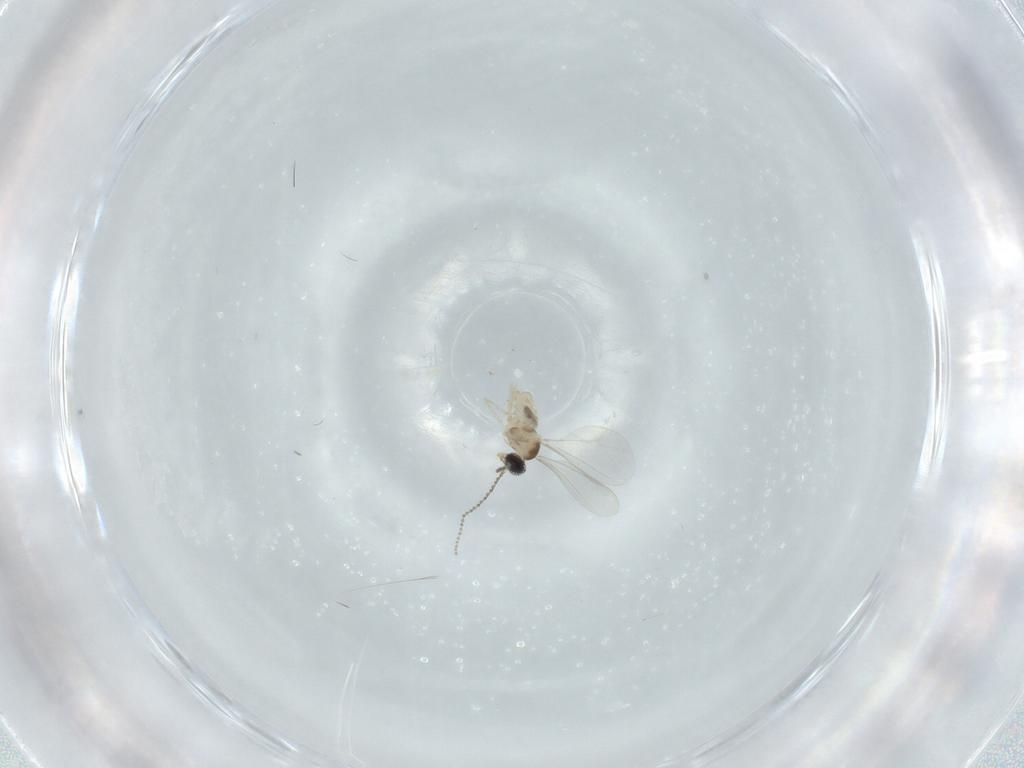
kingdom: Animalia
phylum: Arthropoda
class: Insecta
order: Diptera
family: Cecidomyiidae
